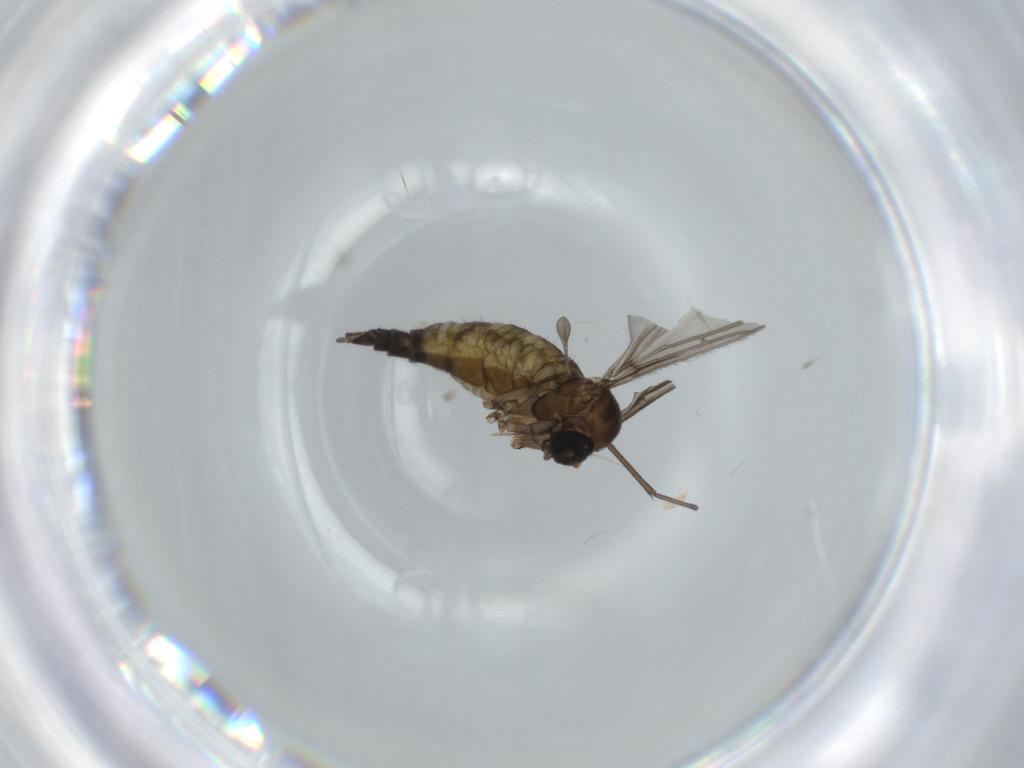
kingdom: Animalia
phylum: Arthropoda
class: Insecta
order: Diptera
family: Sciaridae
